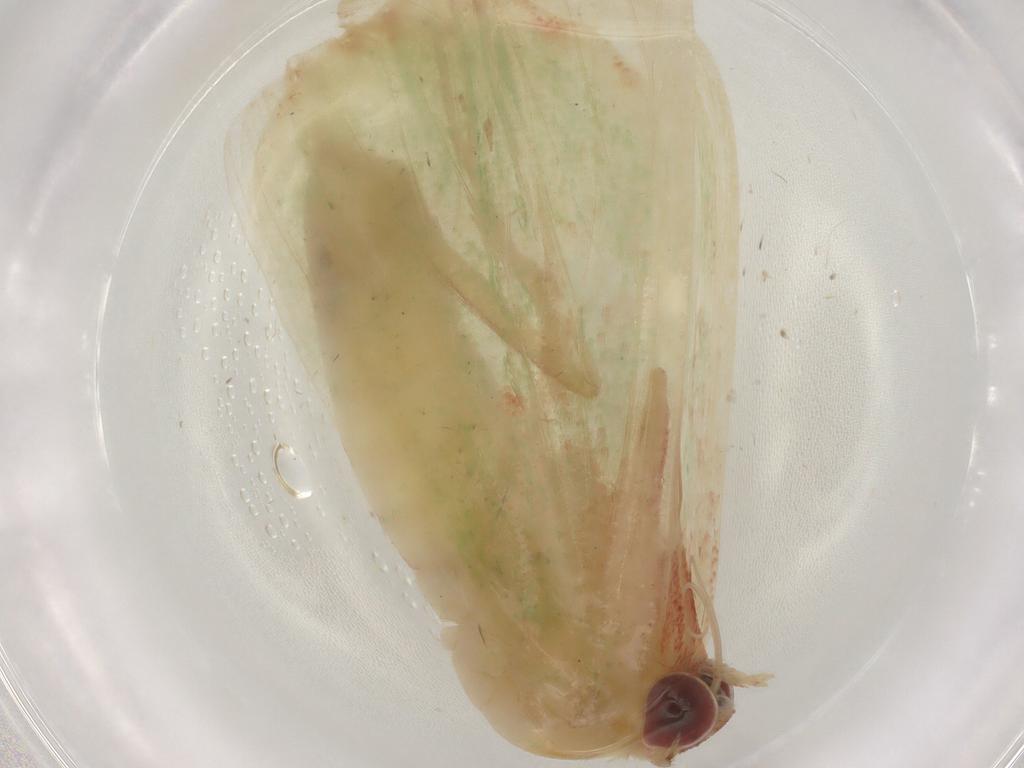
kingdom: Animalia
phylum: Arthropoda
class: Insecta
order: Lepidoptera
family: Geometridae
